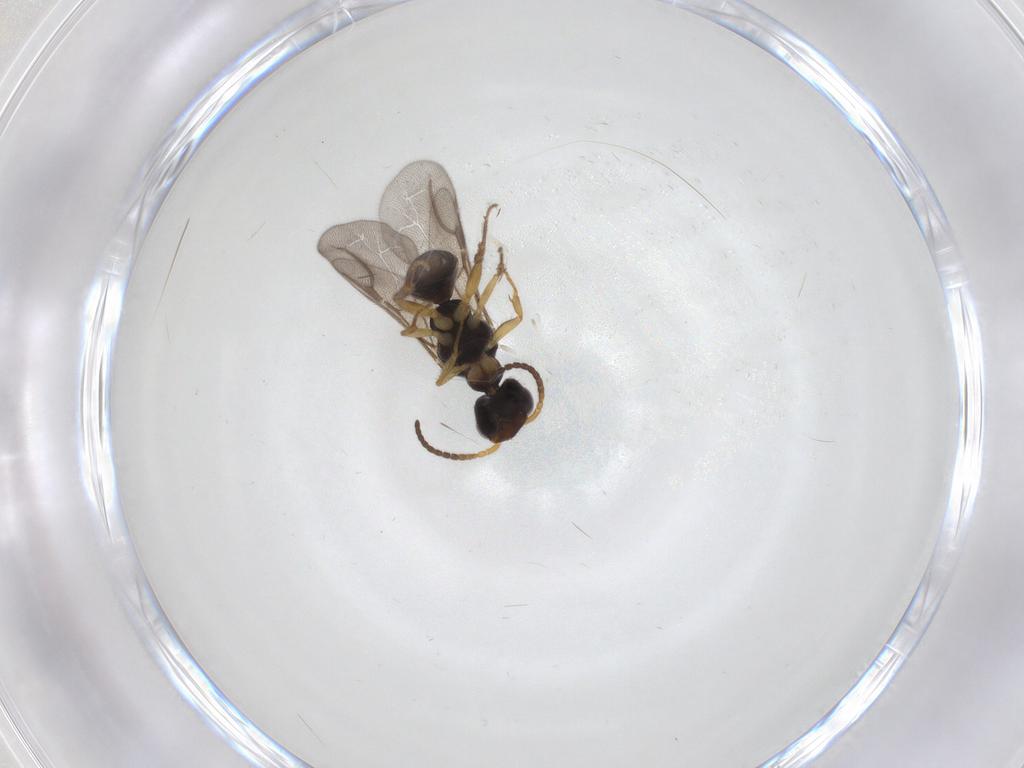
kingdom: Animalia
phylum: Arthropoda
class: Insecta
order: Hymenoptera
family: Bethylidae
